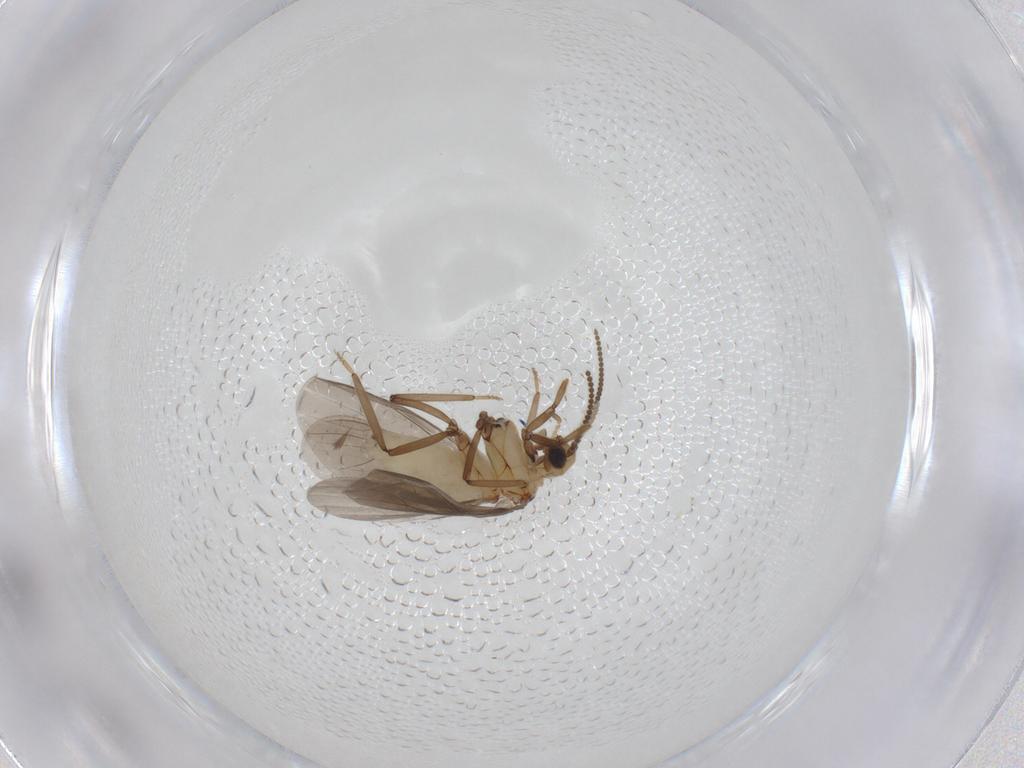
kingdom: Animalia
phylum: Arthropoda
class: Insecta
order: Neuroptera
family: Coniopterygidae
